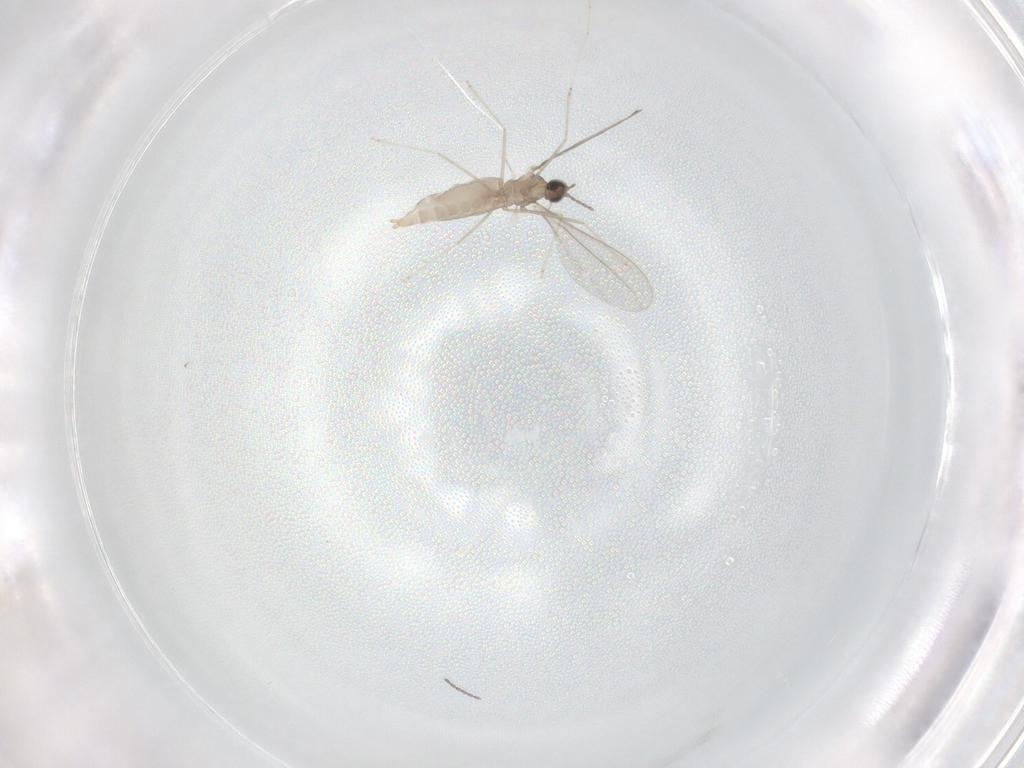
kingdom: Animalia
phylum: Arthropoda
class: Insecta
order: Diptera
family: Cecidomyiidae
